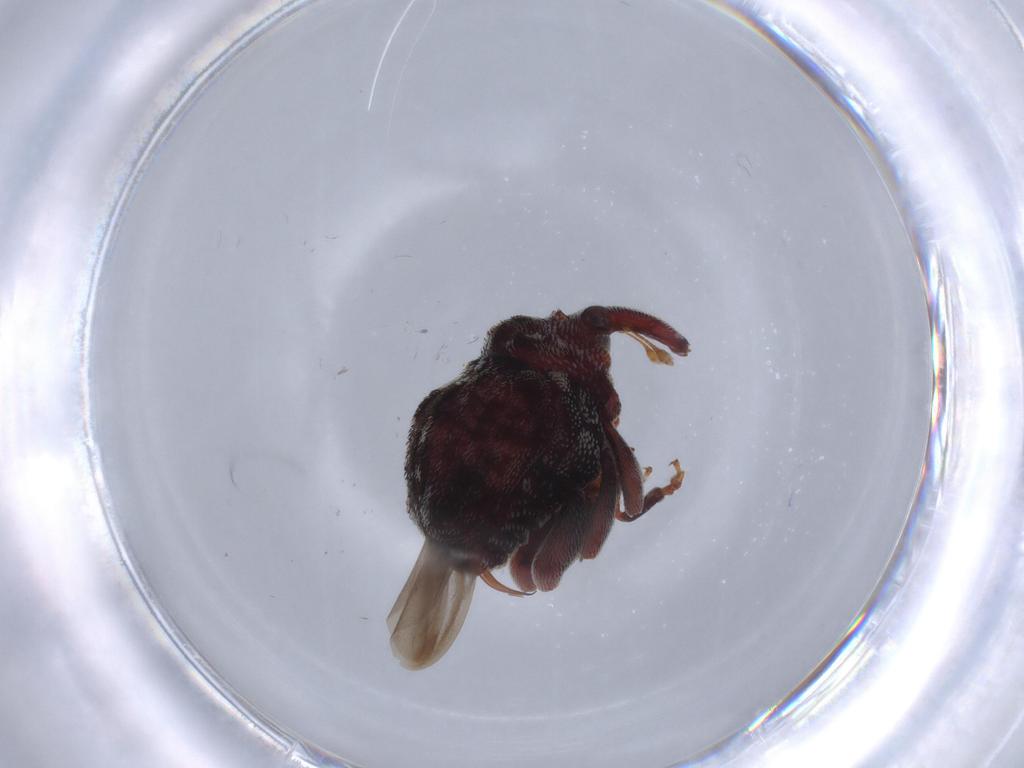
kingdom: Animalia
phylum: Arthropoda
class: Insecta
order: Coleoptera
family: Curculionidae
